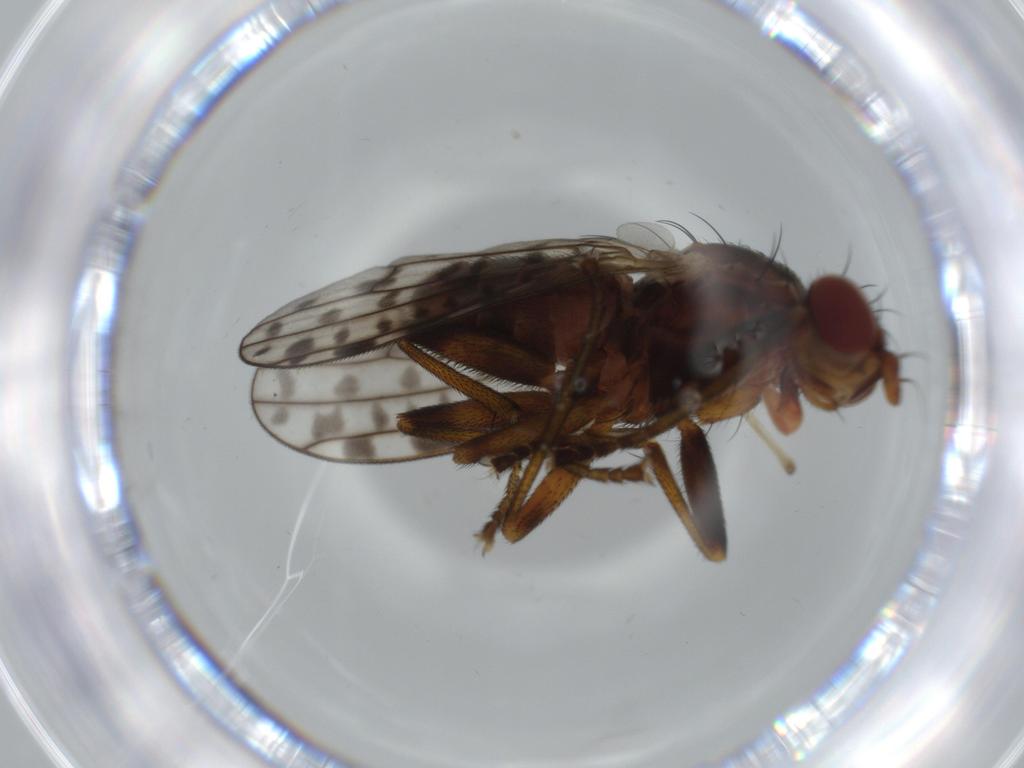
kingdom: Animalia
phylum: Arthropoda
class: Insecta
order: Diptera
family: Chironomidae
